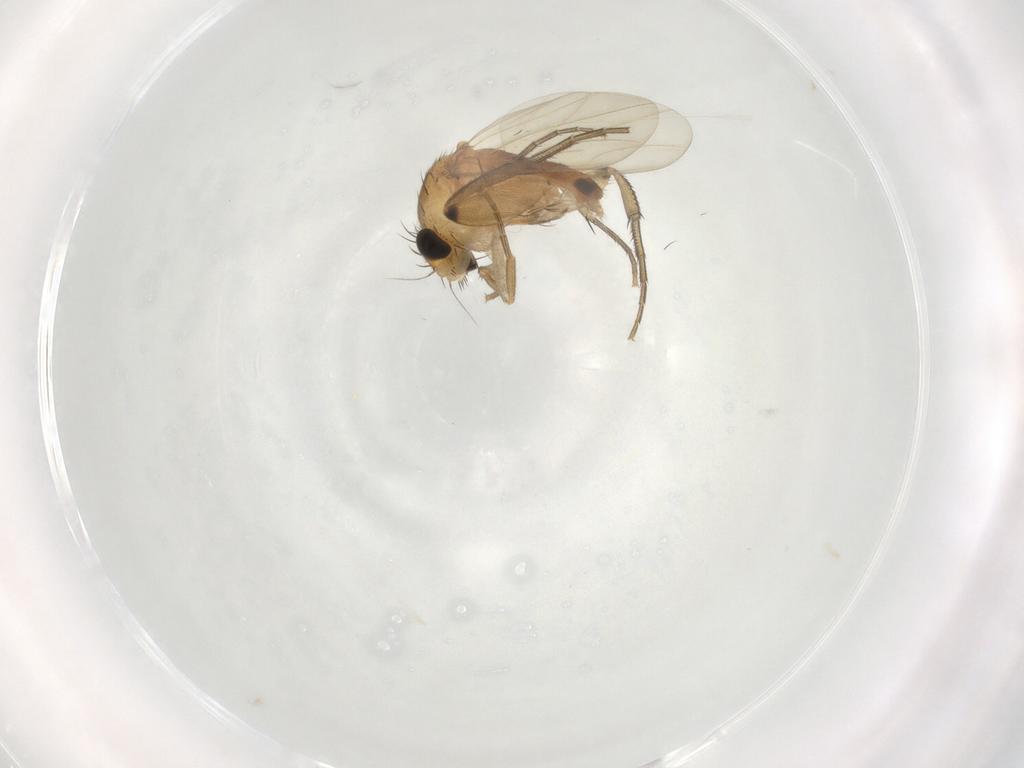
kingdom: Animalia
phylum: Arthropoda
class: Insecta
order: Diptera
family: Phoridae
